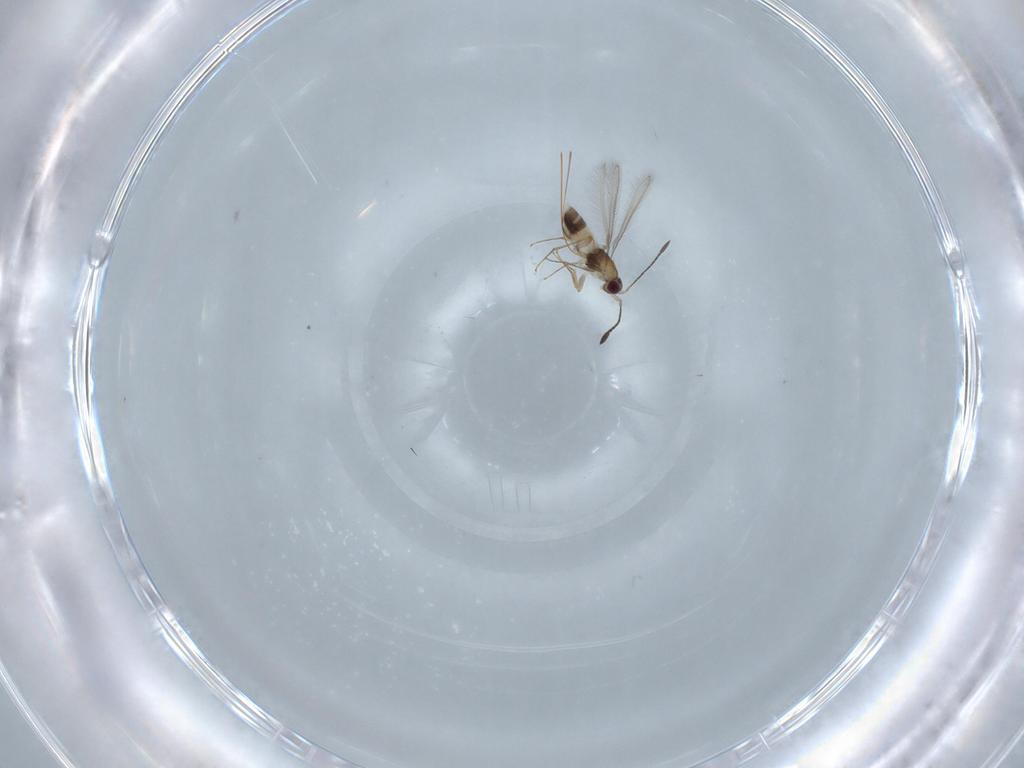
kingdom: Animalia
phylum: Arthropoda
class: Insecta
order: Hymenoptera
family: Mymaridae
